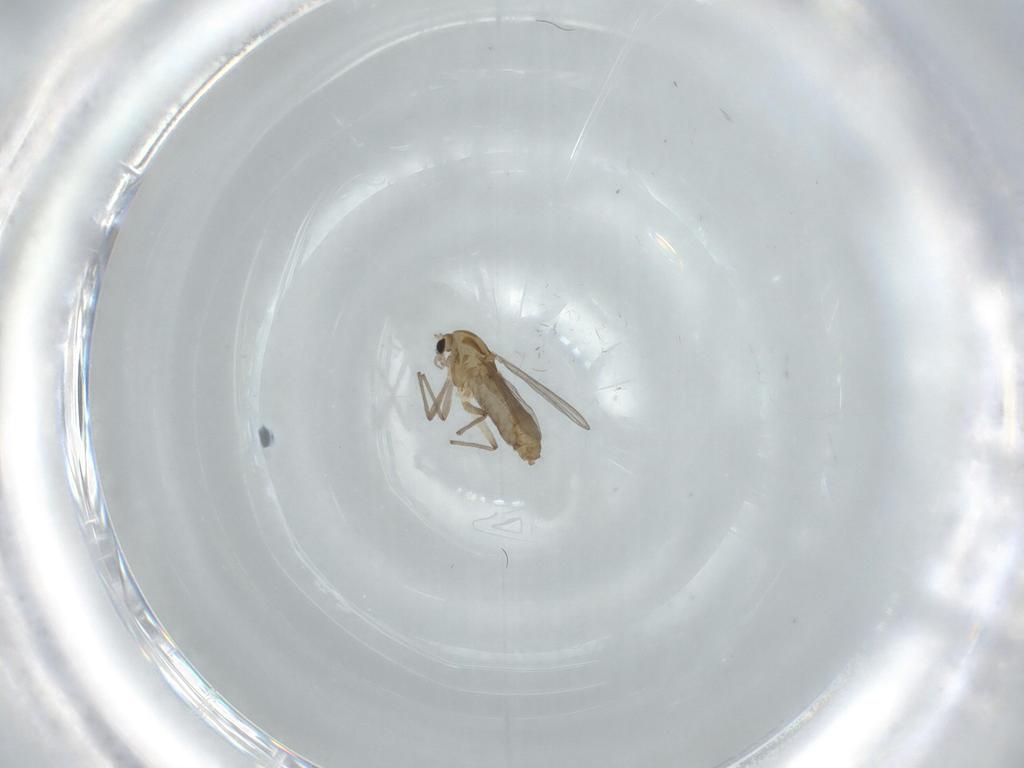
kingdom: Animalia
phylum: Arthropoda
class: Insecta
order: Diptera
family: Chironomidae
